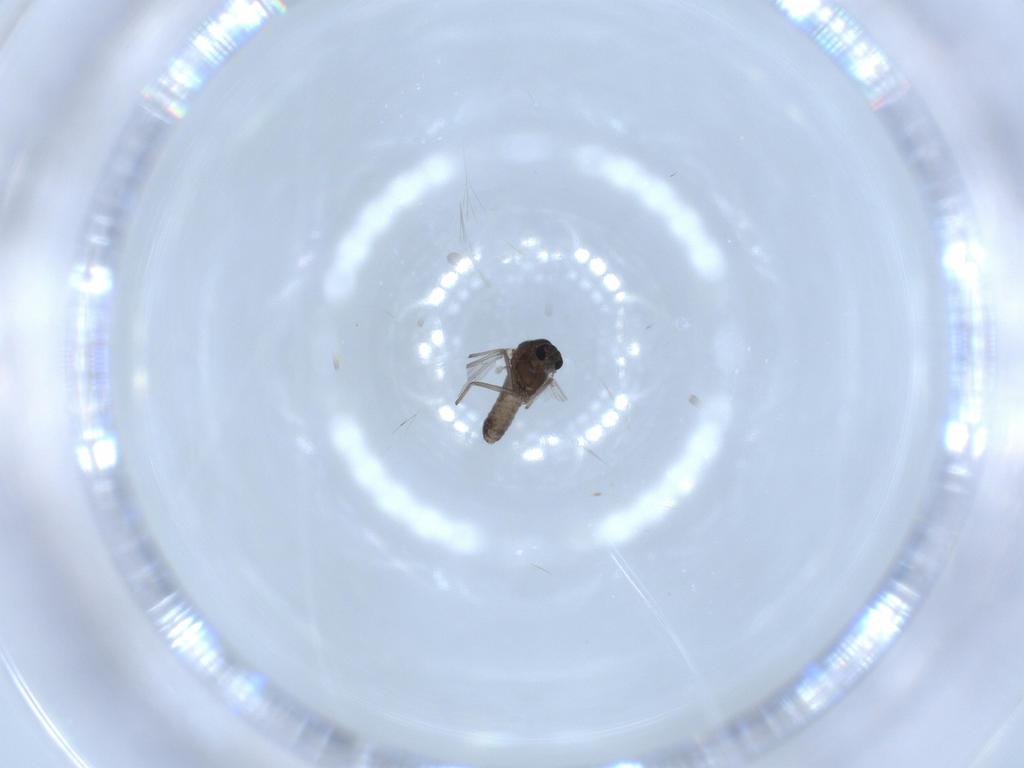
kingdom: Animalia
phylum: Arthropoda
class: Insecta
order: Diptera
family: Chironomidae
